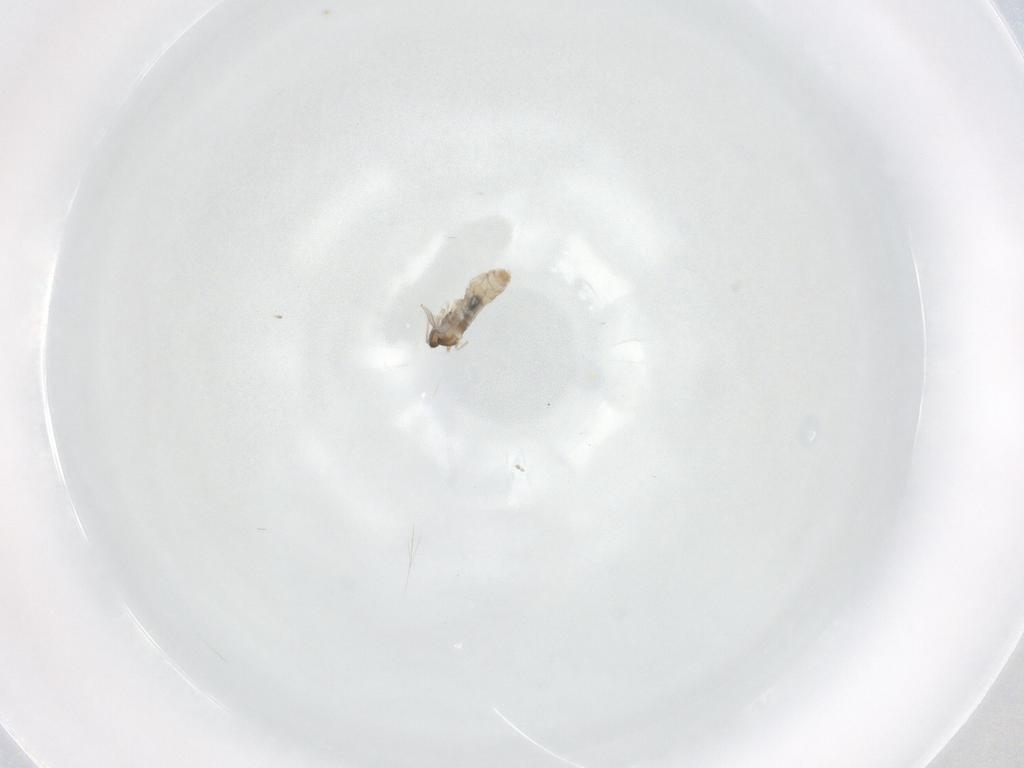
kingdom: Animalia
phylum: Arthropoda
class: Insecta
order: Diptera
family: Cecidomyiidae
